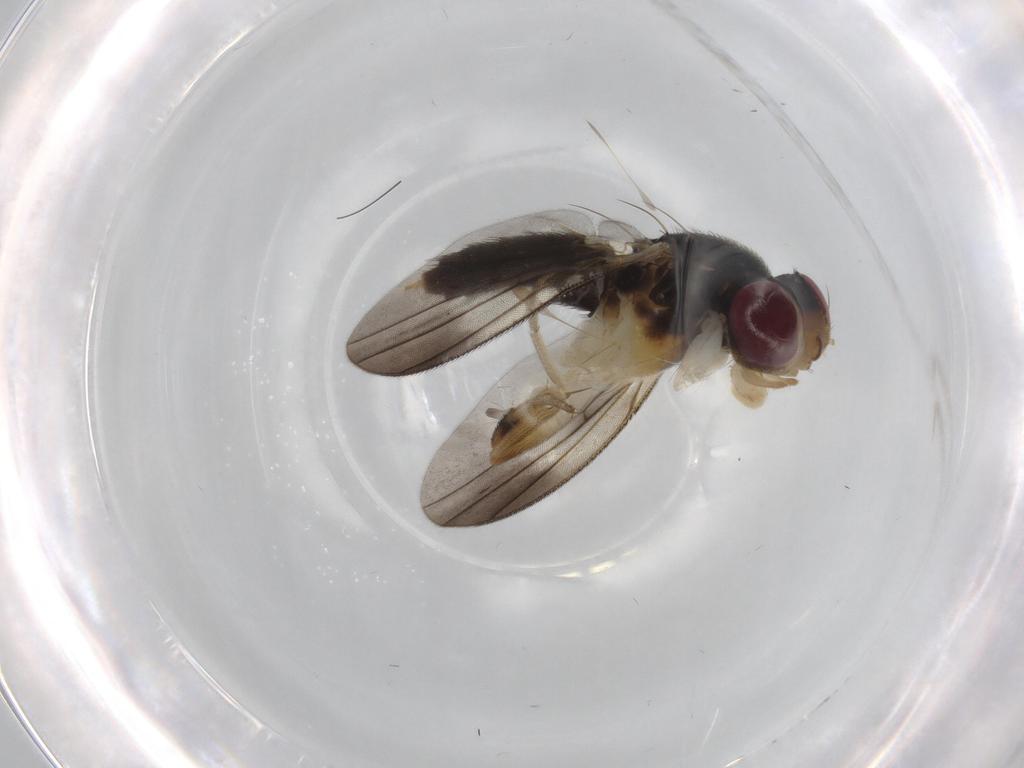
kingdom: Animalia
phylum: Arthropoda
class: Insecta
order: Diptera
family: Clusiidae
